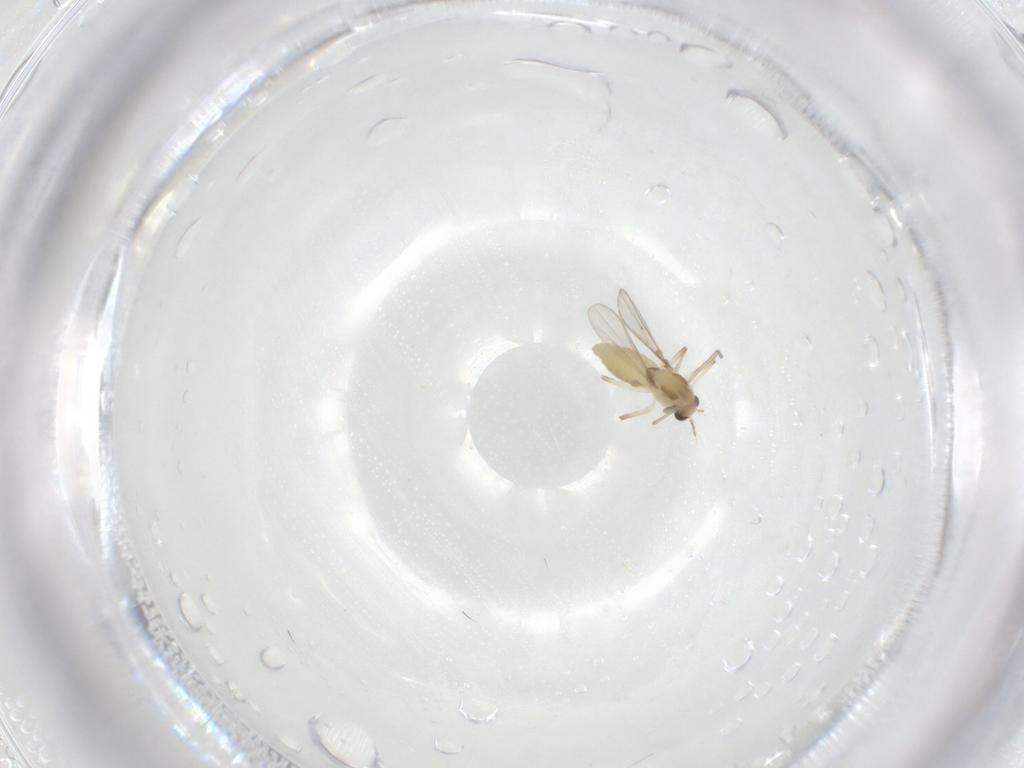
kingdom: Animalia
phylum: Arthropoda
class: Insecta
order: Diptera
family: Chironomidae
